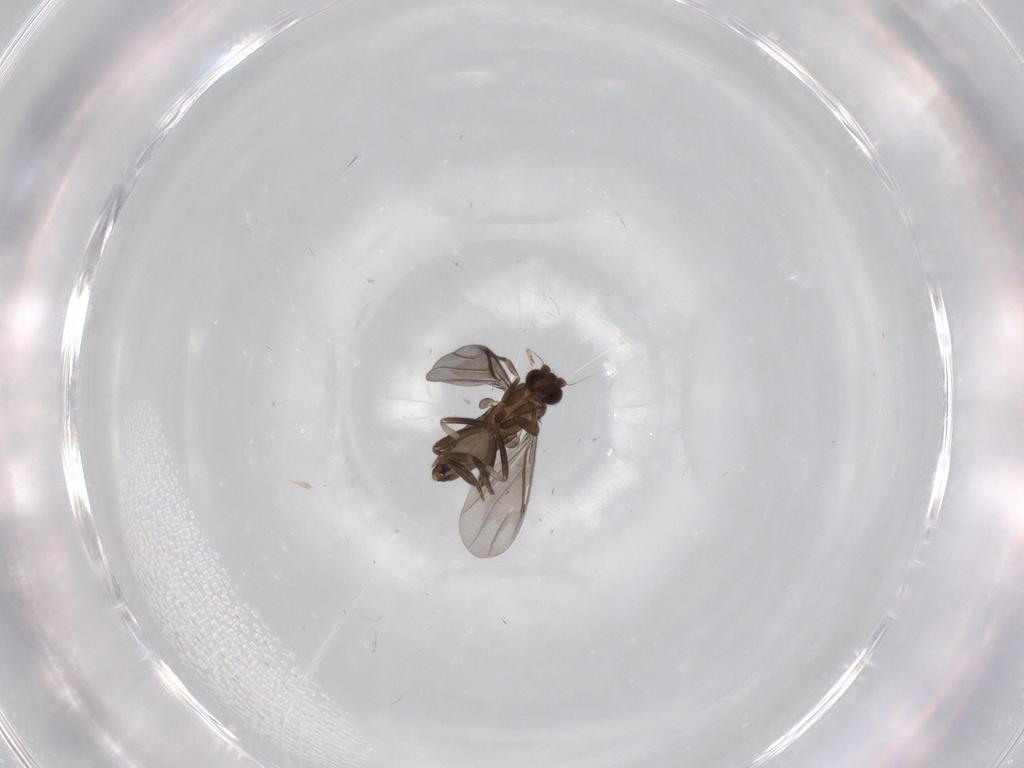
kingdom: Animalia
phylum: Arthropoda
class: Insecta
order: Diptera
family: Phoridae
